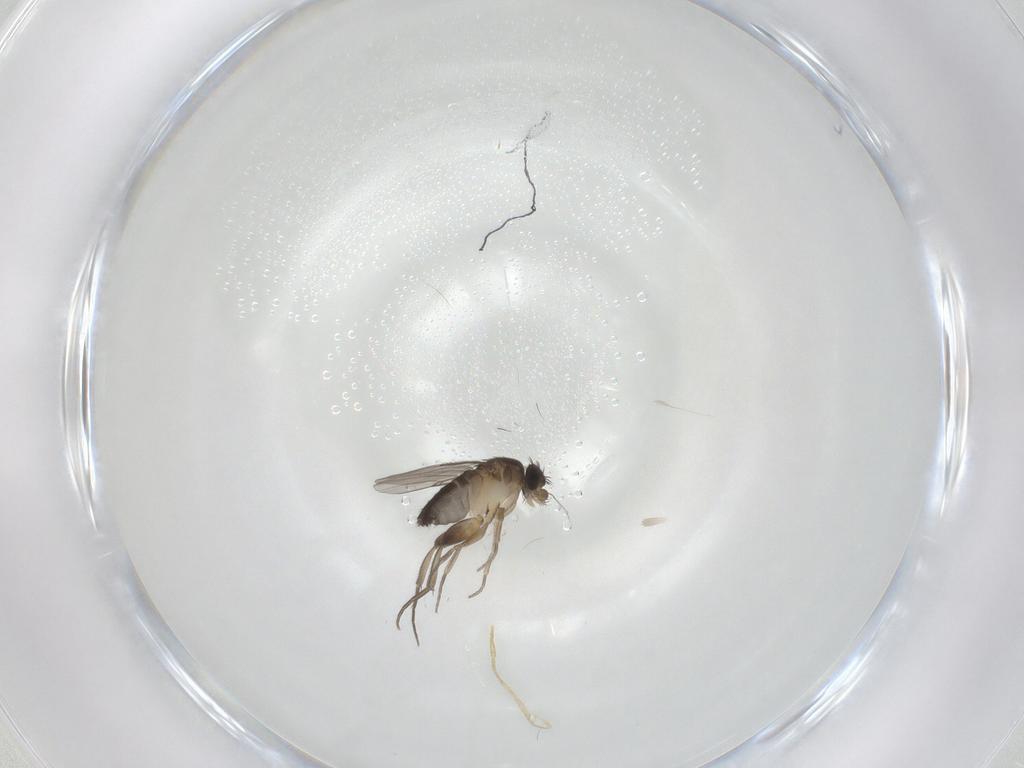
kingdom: Animalia
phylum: Arthropoda
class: Insecta
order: Diptera
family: Phoridae
